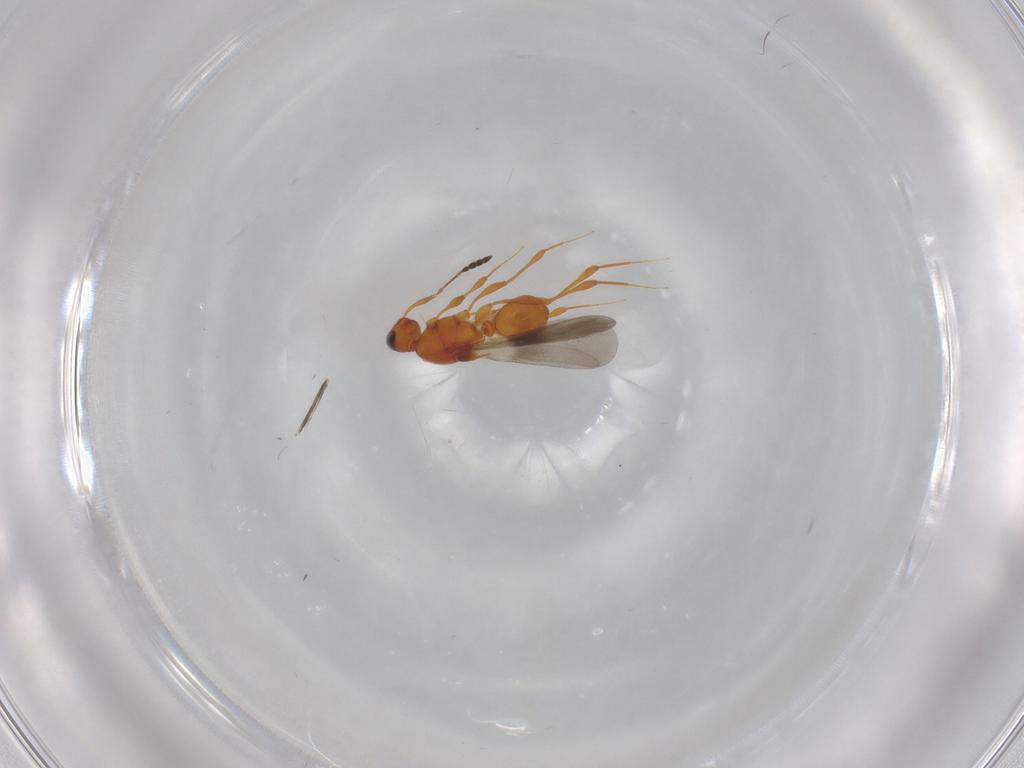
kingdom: Animalia
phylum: Arthropoda
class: Insecta
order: Hymenoptera
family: Platygastridae
